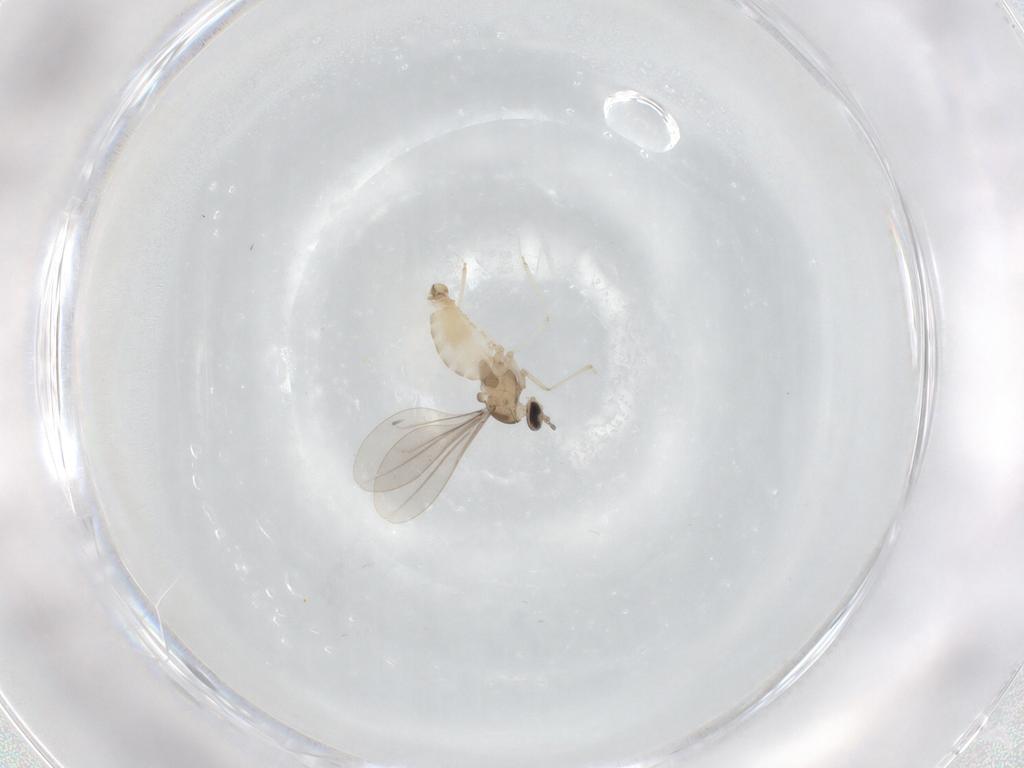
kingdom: Animalia
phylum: Arthropoda
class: Insecta
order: Diptera
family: Cecidomyiidae
